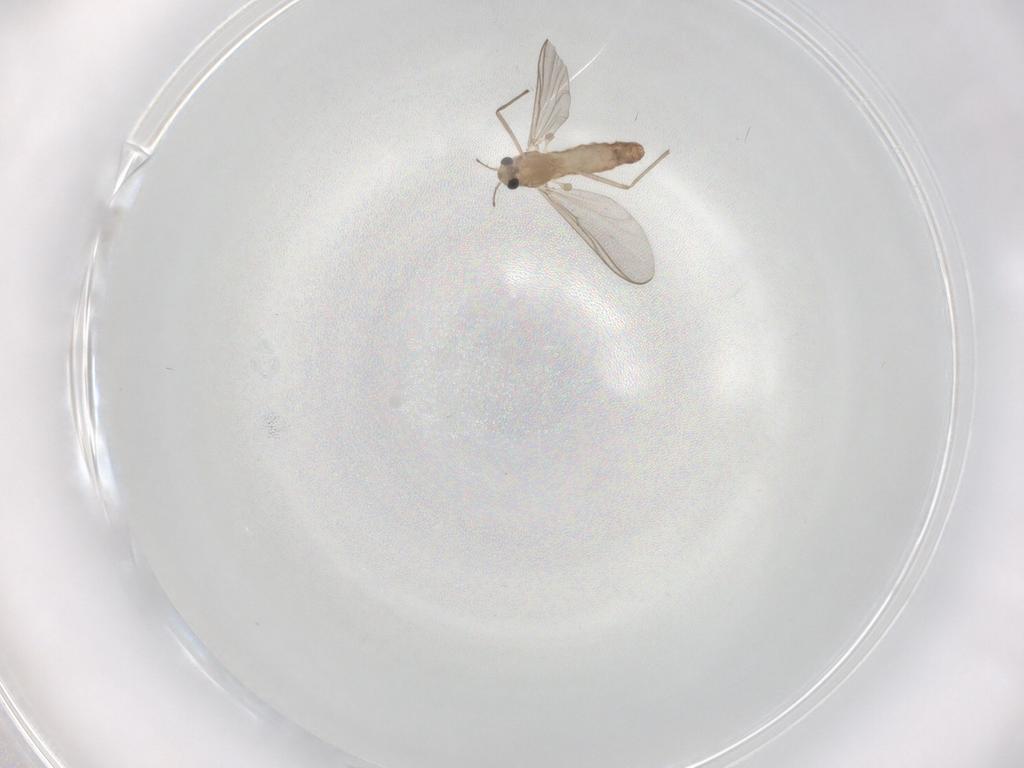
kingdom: Animalia
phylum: Arthropoda
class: Insecta
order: Diptera
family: Chironomidae
